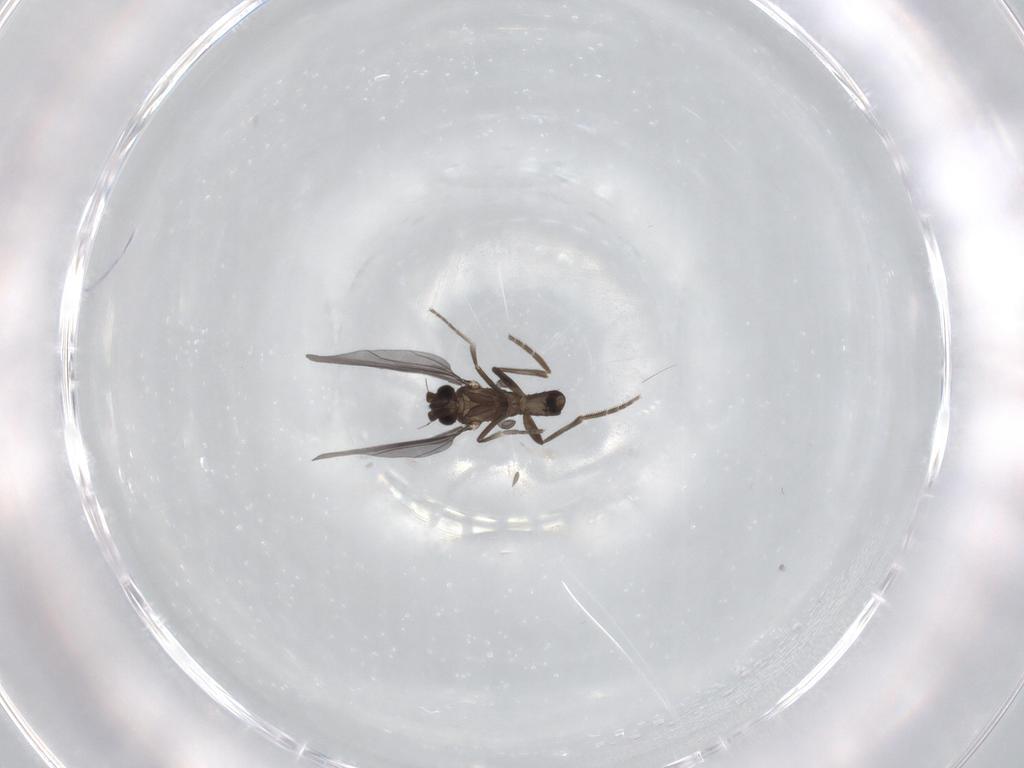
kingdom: Animalia
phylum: Arthropoda
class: Insecta
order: Diptera
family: Phoridae
